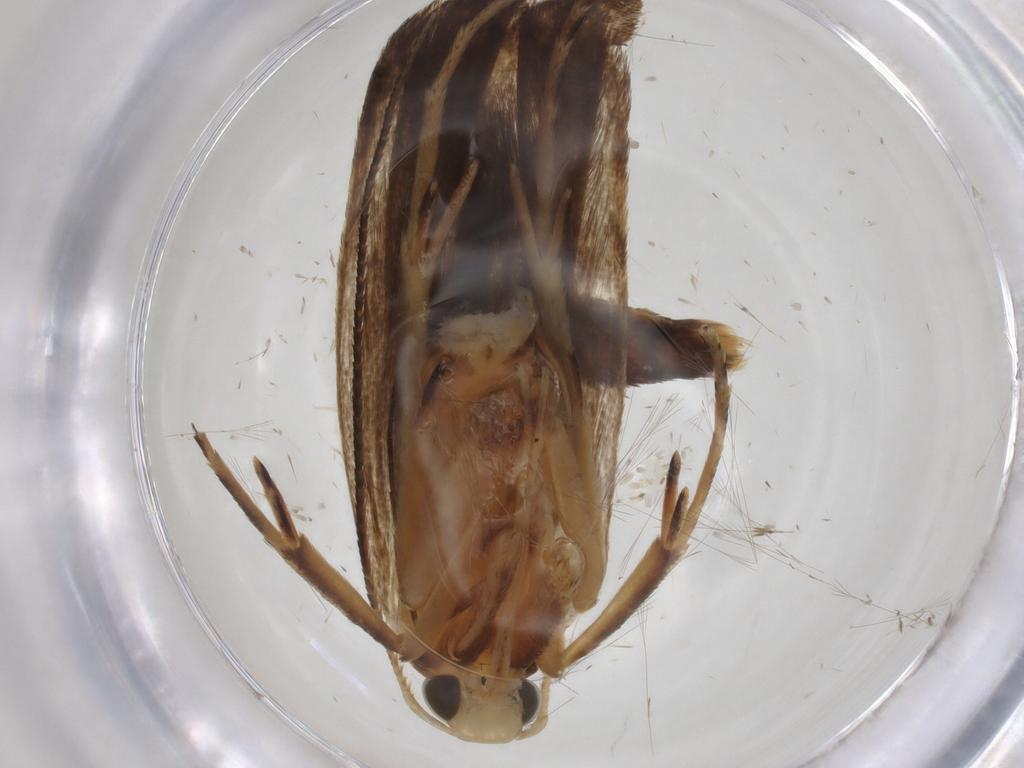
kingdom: Animalia
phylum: Arthropoda
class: Insecta
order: Lepidoptera
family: Gelechiidae
